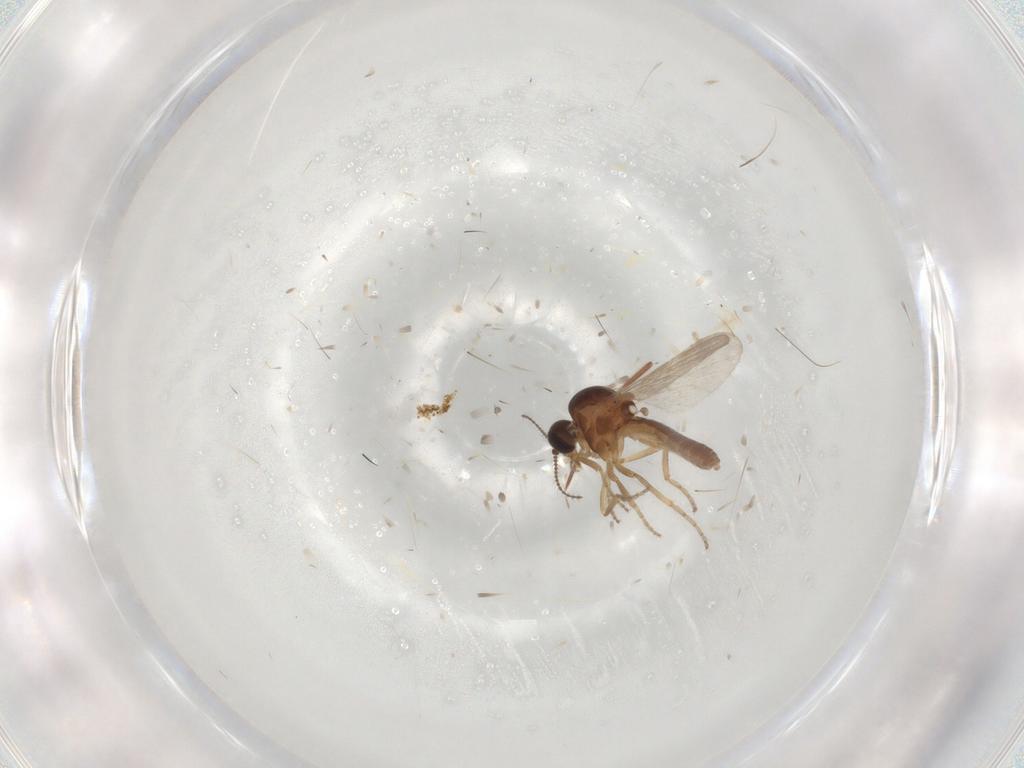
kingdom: Animalia
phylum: Arthropoda
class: Insecta
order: Diptera
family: Ceratopogonidae
